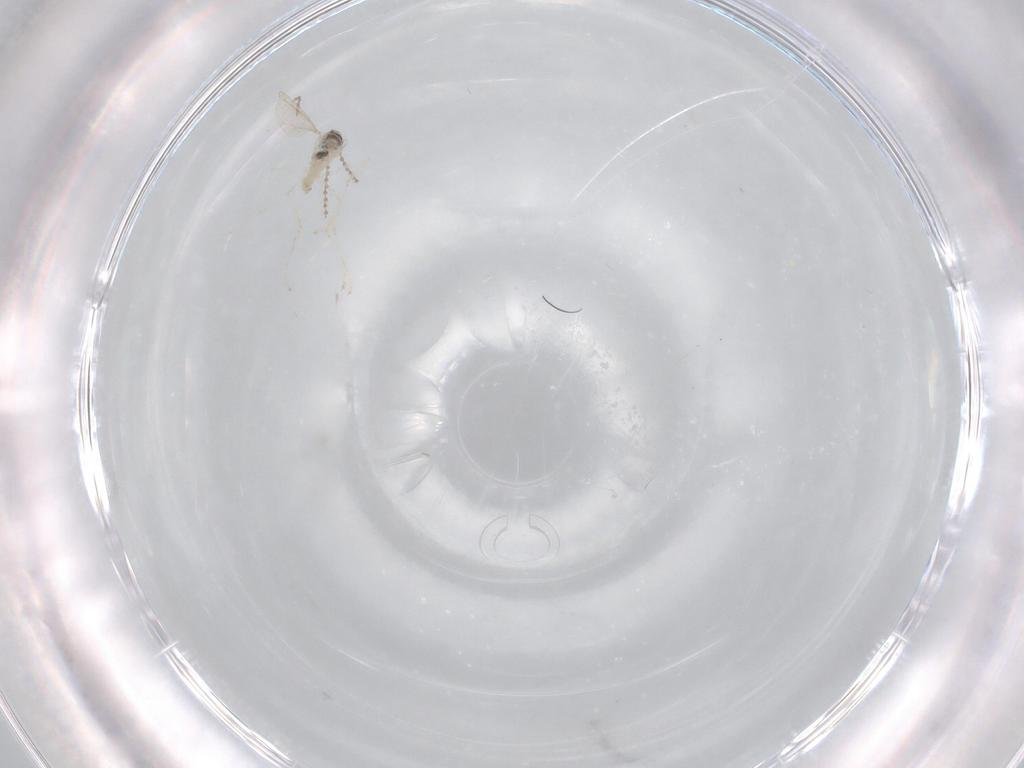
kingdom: Animalia
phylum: Arthropoda
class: Insecta
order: Diptera
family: Cecidomyiidae
